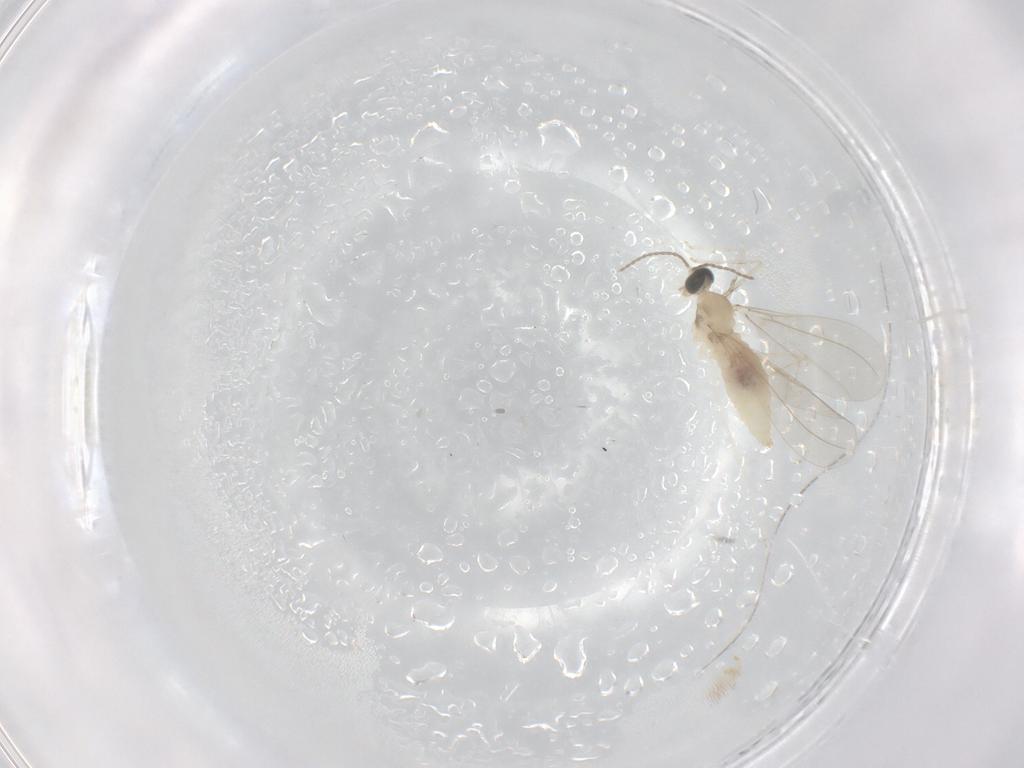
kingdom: Animalia
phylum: Arthropoda
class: Insecta
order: Diptera
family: Cecidomyiidae
